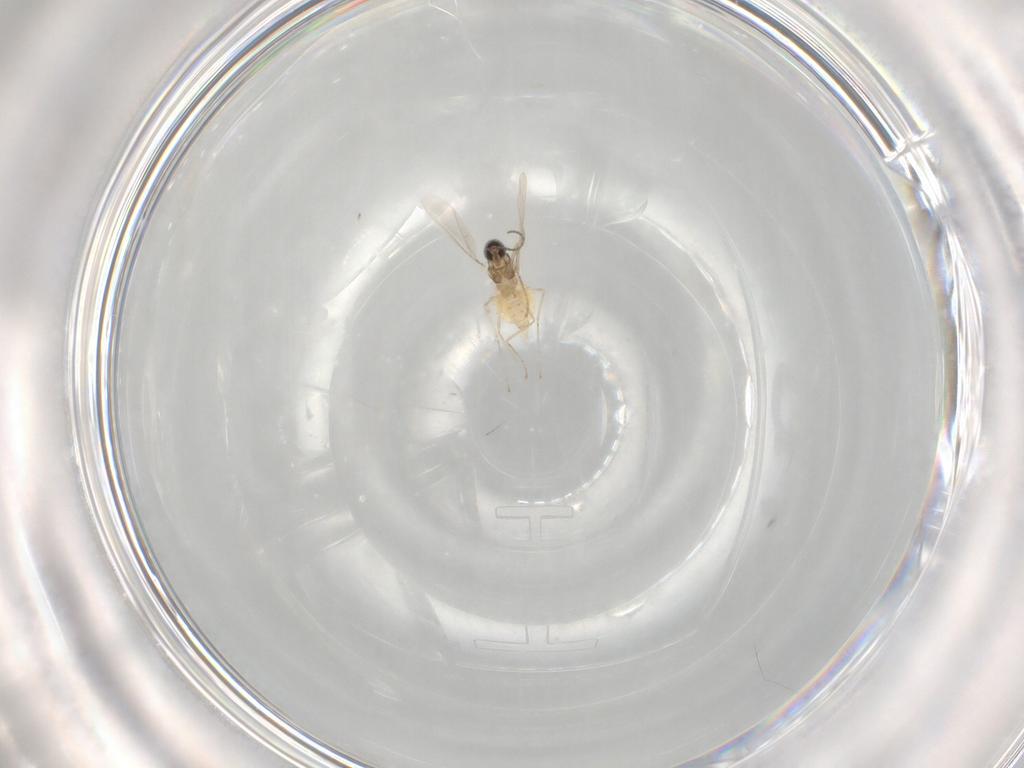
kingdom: Animalia
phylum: Arthropoda
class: Insecta
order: Diptera
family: Cecidomyiidae
